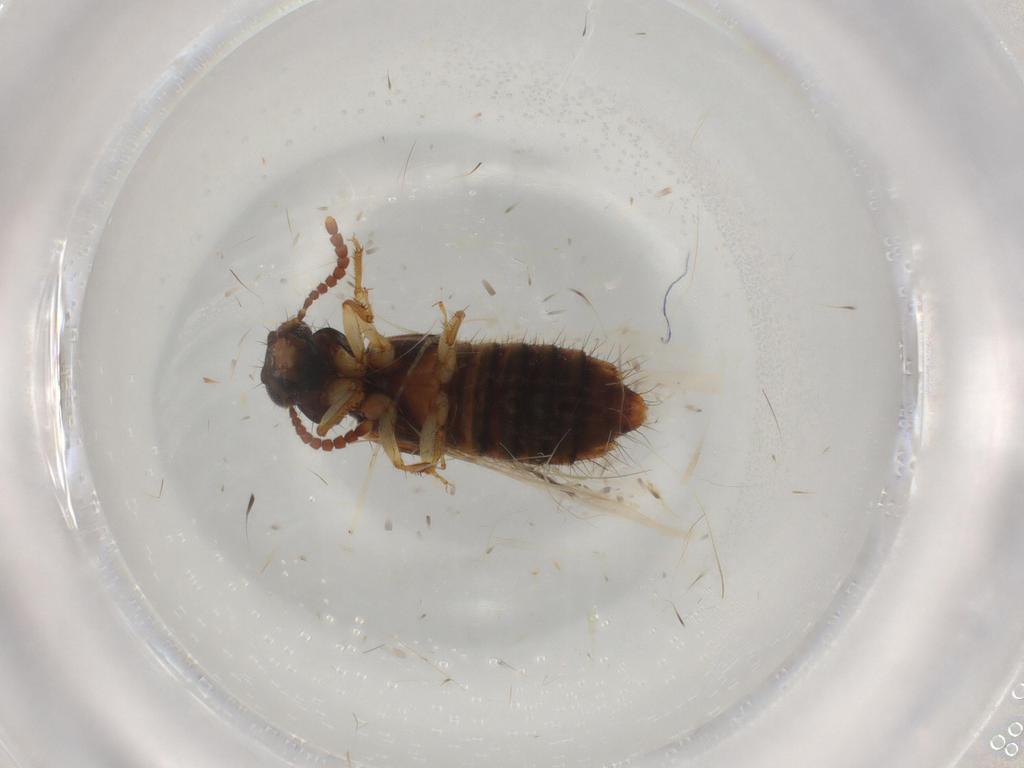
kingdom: Animalia
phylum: Arthropoda
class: Insecta
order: Coleoptera
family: Staphylinidae
